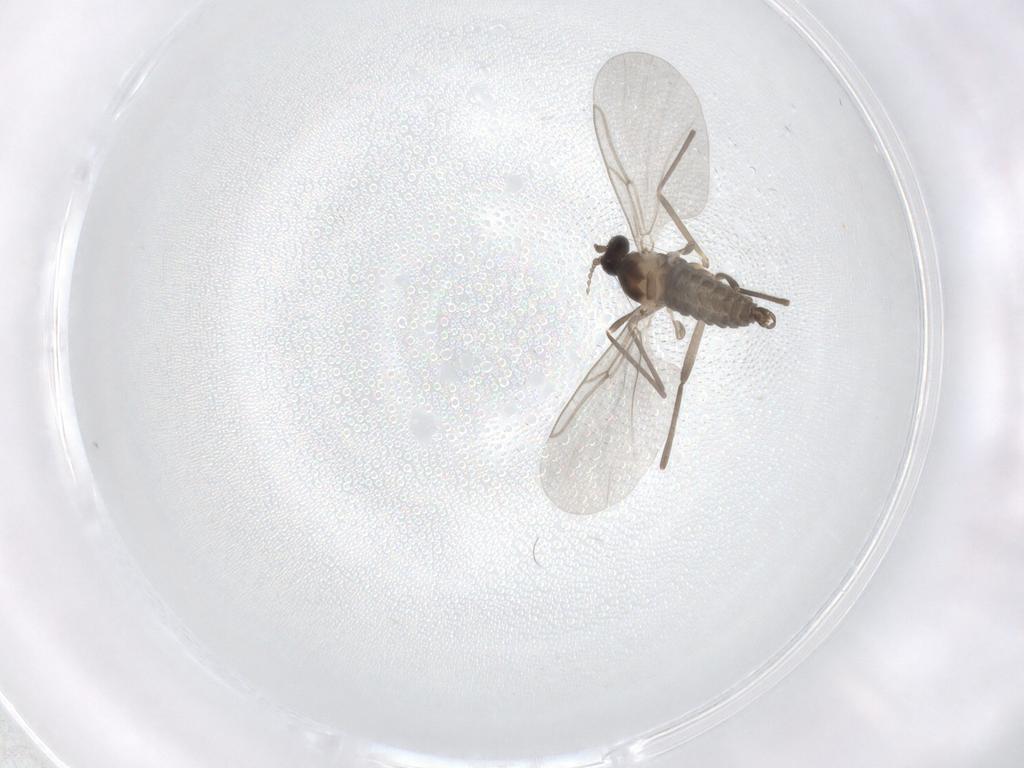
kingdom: Animalia
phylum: Arthropoda
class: Insecta
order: Diptera
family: Cecidomyiidae
